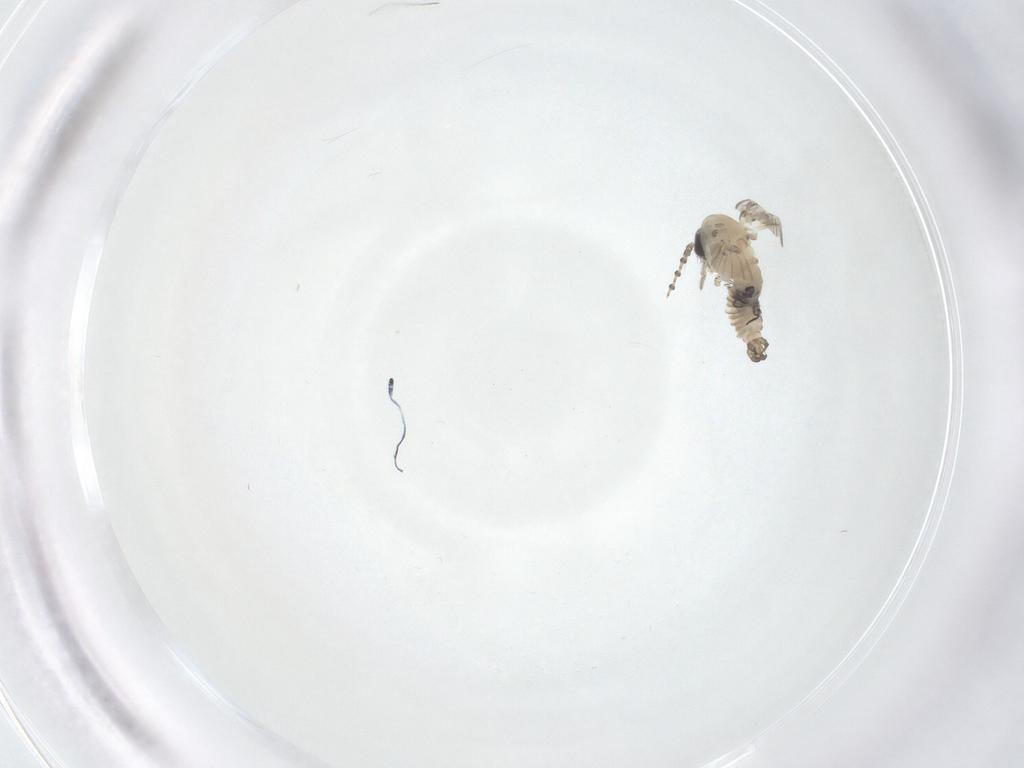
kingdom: Animalia
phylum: Arthropoda
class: Insecta
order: Diptera
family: Psychodidae
